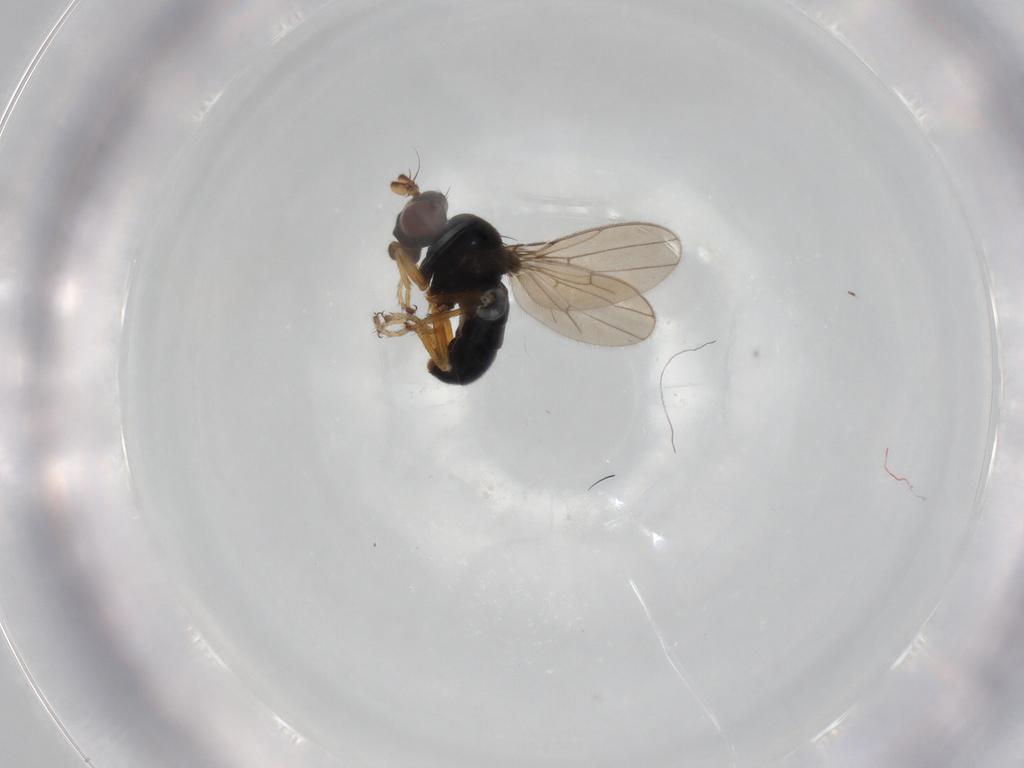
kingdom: Animalia
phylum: Arthropoda
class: Insecta
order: Diptera
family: Ephydridae
